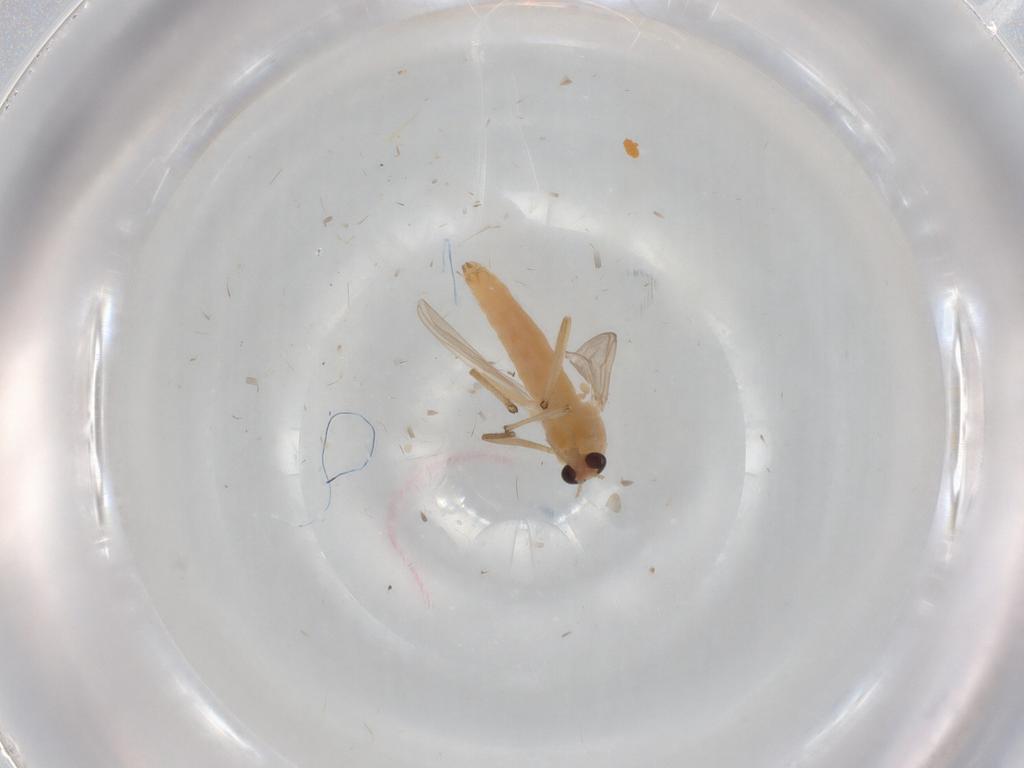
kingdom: Animalia
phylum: Arthropoda
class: Insecta
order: Diptera
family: Chironomidae
